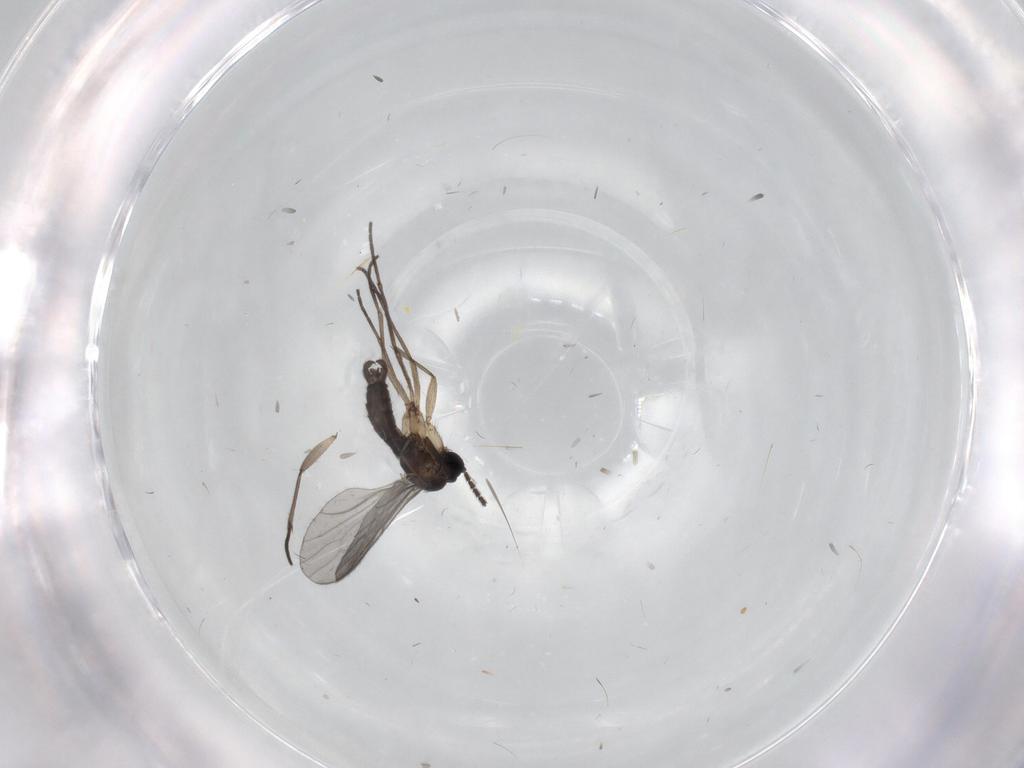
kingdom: Animalia
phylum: Arthropoda
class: Insecta
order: Diptera
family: Sciaridae
